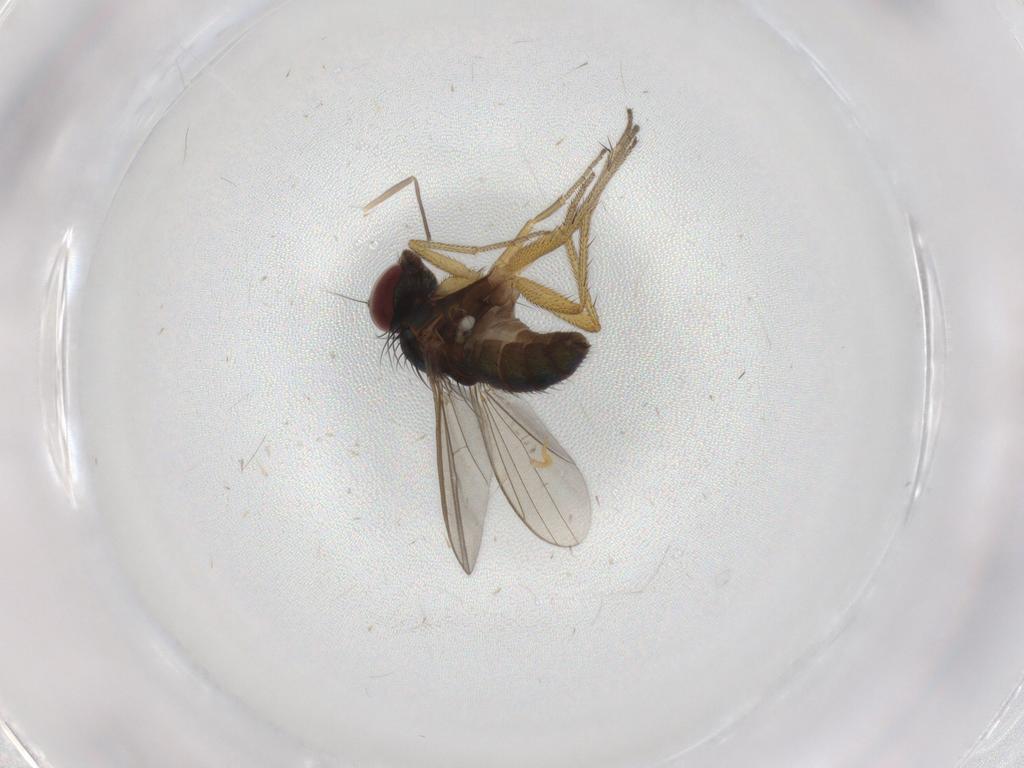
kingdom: Animalia
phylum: Arthropoda
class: Insecta
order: Diptera
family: Chironomidae
